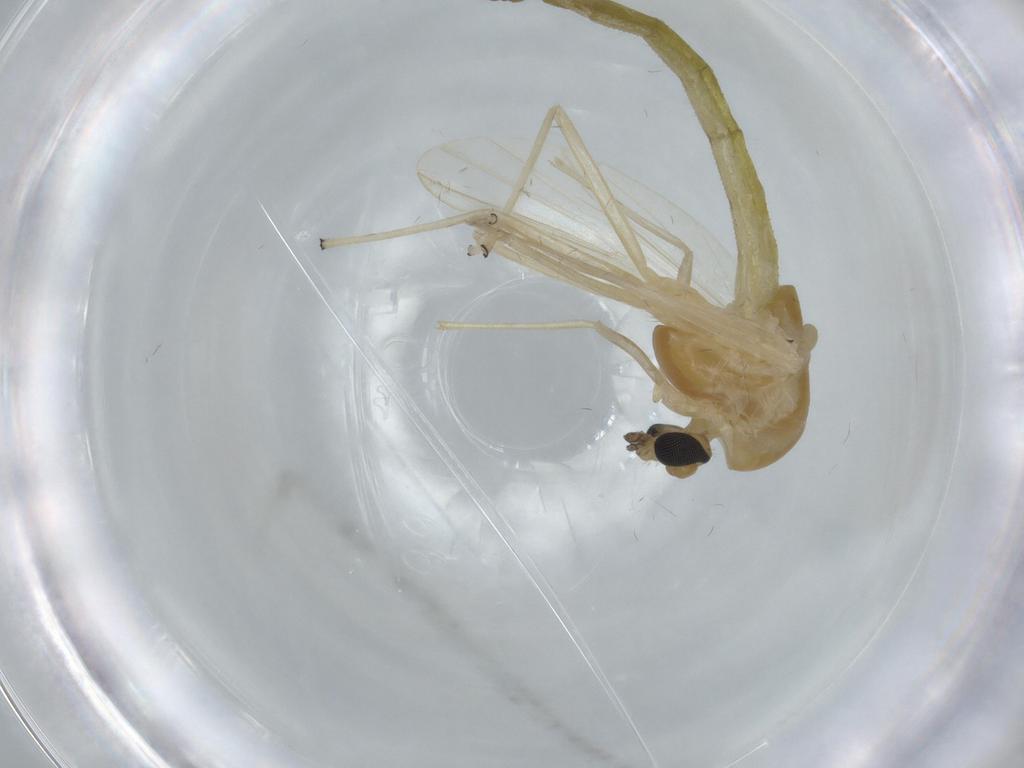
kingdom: Animalia
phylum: Arthropoda
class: Insecta
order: Diptera
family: Chironomidae
